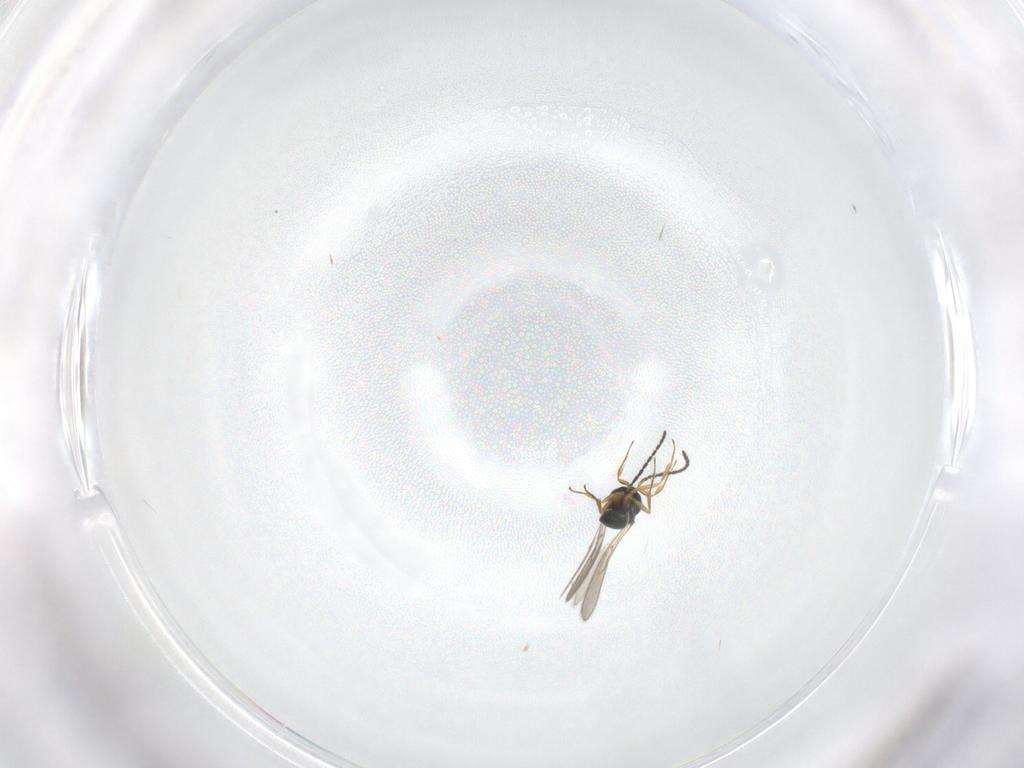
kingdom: Animalia
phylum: Arthropoda
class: Insecta
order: Hymenoptera
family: Scelionidae
